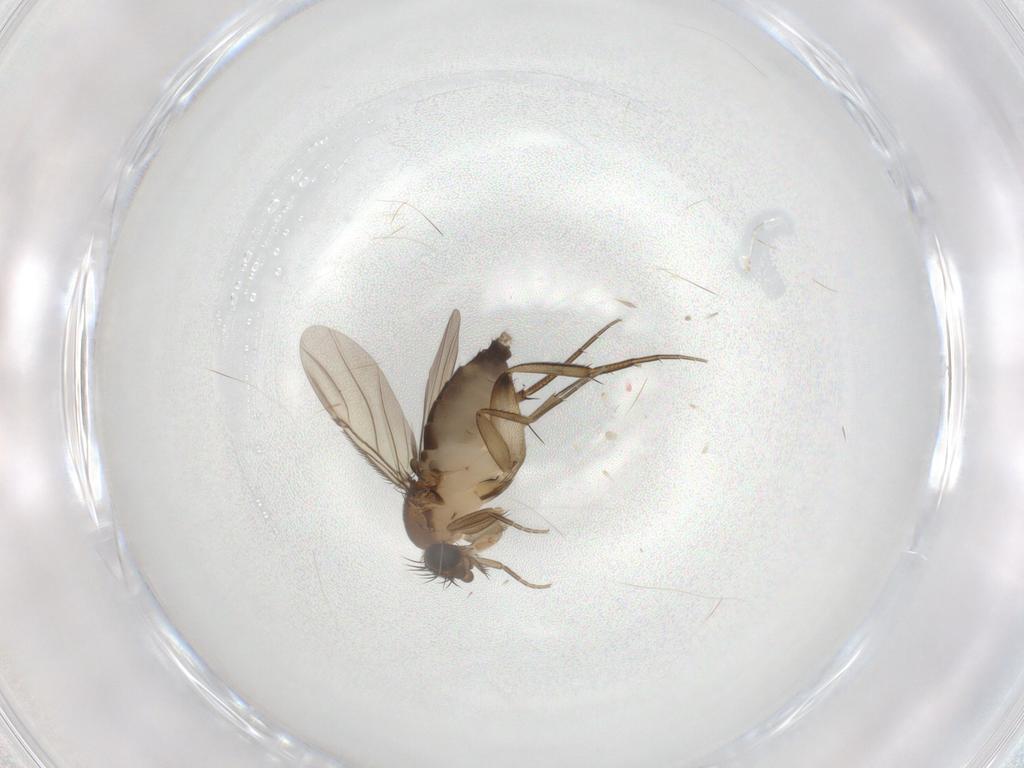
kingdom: Animalia
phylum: Arthropoda
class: Insecta
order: Diptera
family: Phoridae
